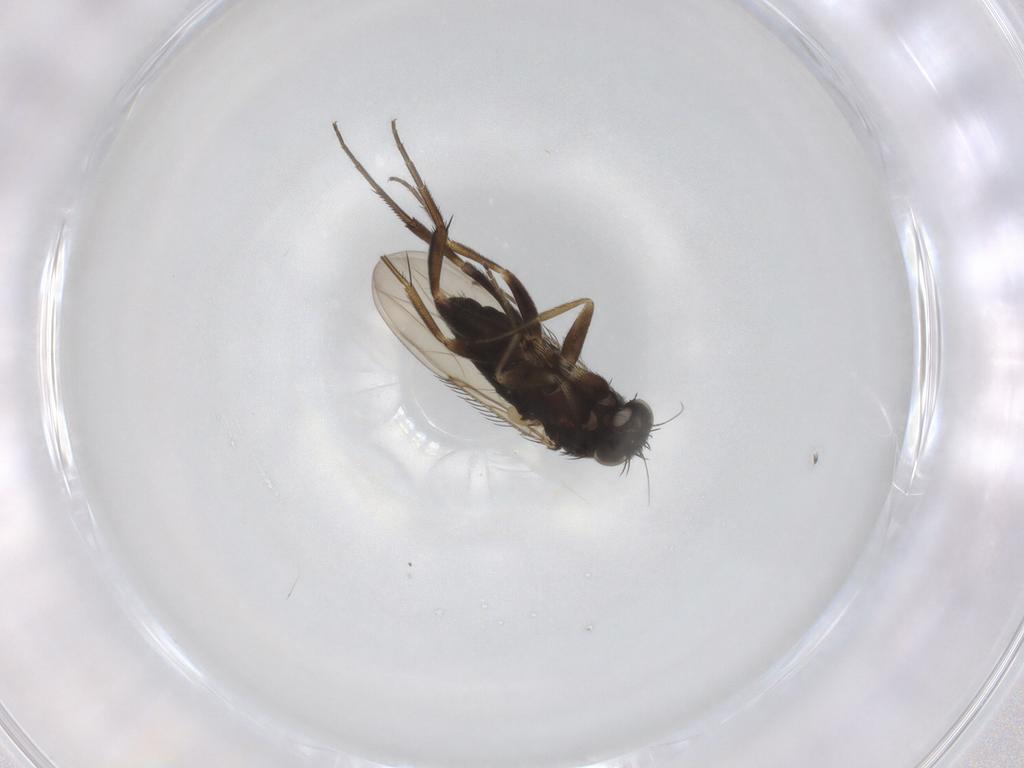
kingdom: Animalia
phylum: Arthropoda
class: Insecta
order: Diptera
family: Phoridae
